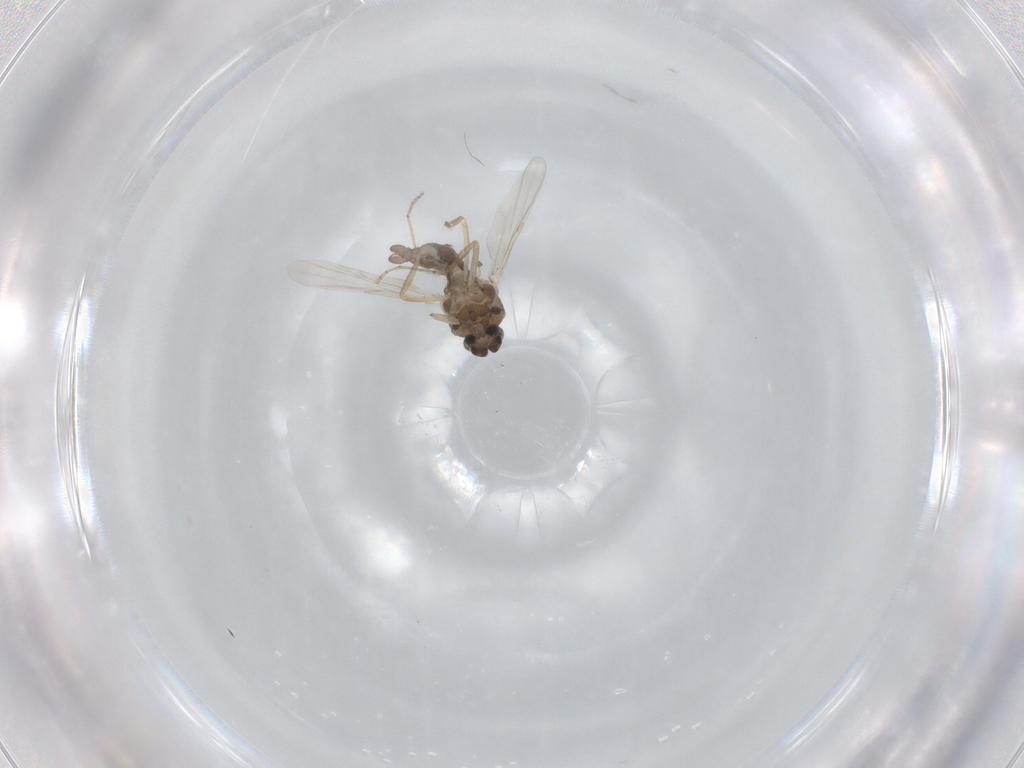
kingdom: Animalia
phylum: Arthropoda
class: Insecta
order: Diptera
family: Ceratopogonidae
